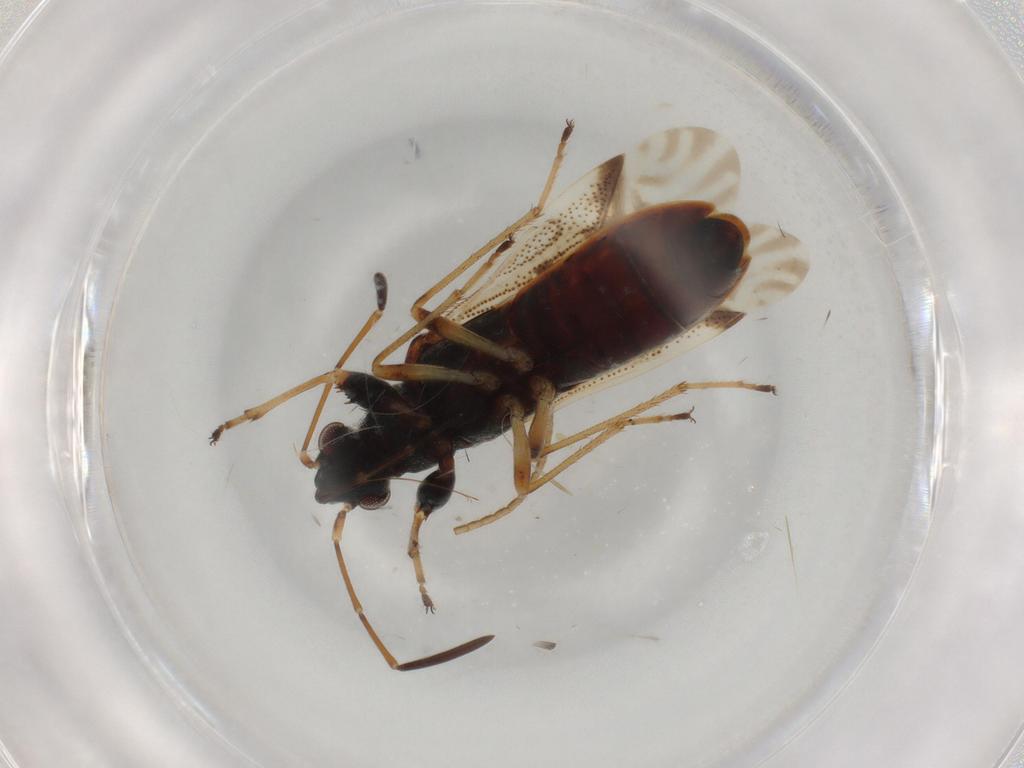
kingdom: Animalia
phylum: Arthropoda
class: Insecta
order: Hemiptera
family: Rhyparochromidae
